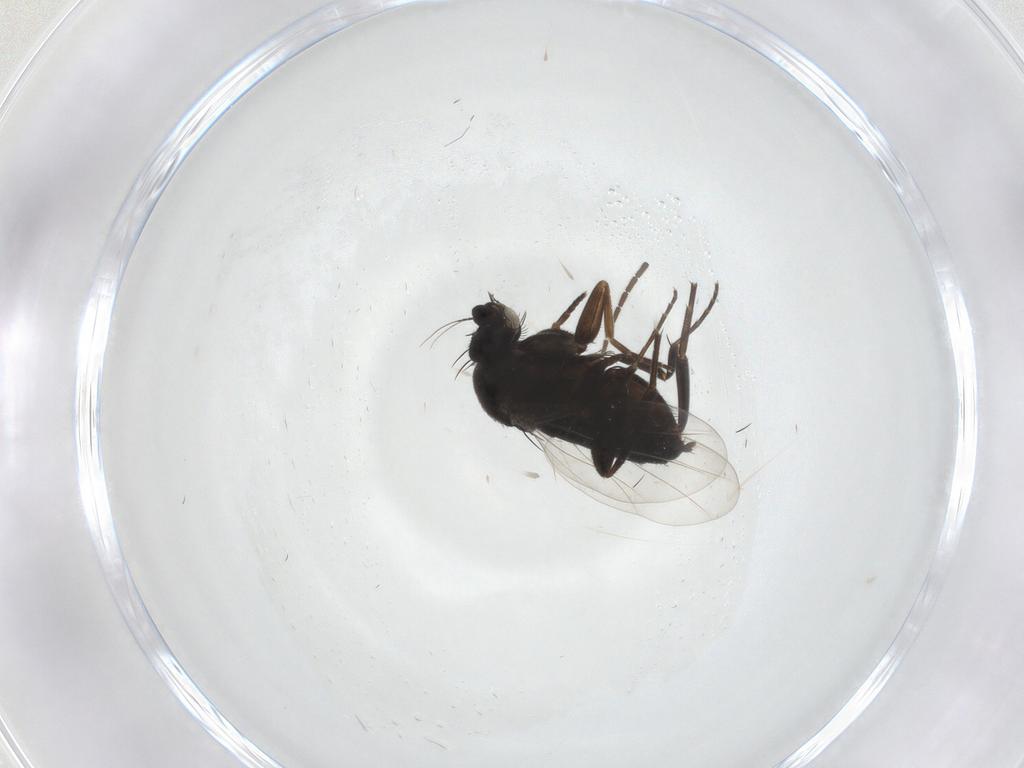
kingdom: Animalia
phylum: Arthropoda
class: Insecta
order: Diptera
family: Phoridae
